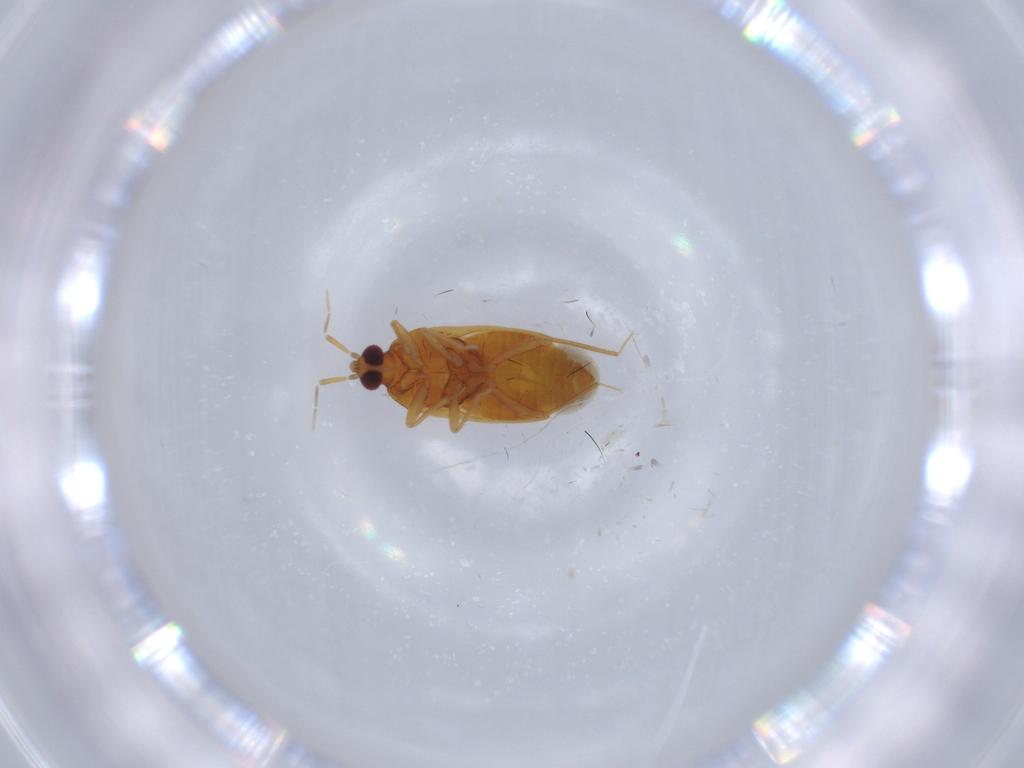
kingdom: Animalia
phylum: Arthropoda
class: Insecta
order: Hemiptera
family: Anthocoridae
